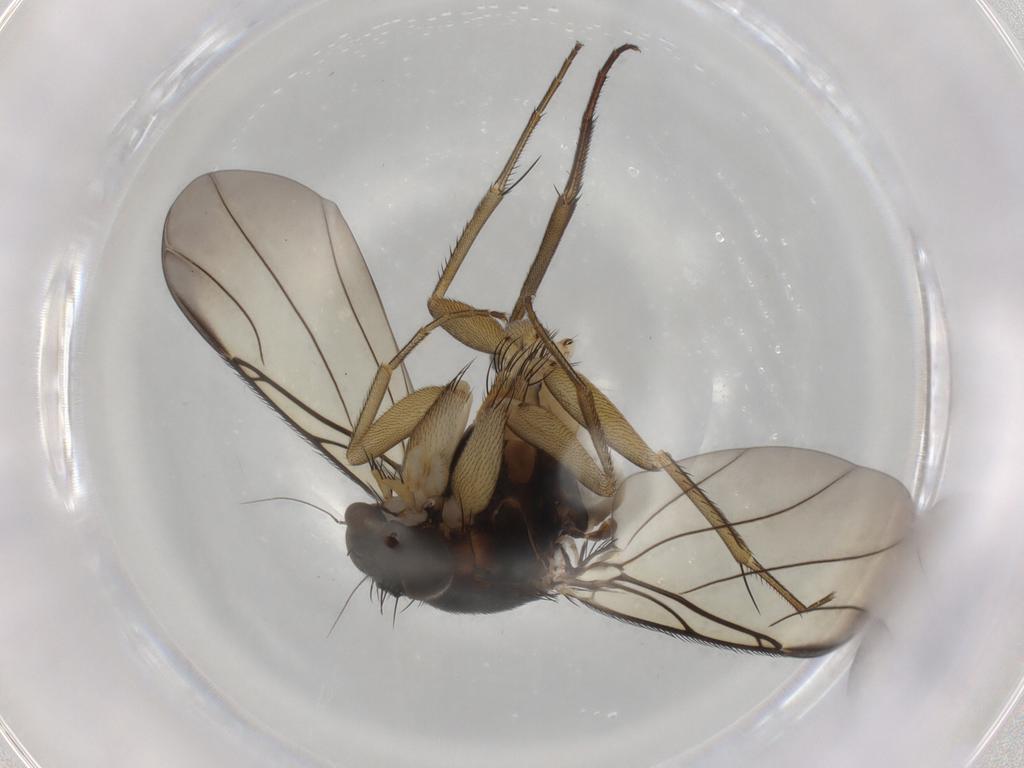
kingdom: Animalia
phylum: Arthropoda
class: Insecta
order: Diptera
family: Phoridae
